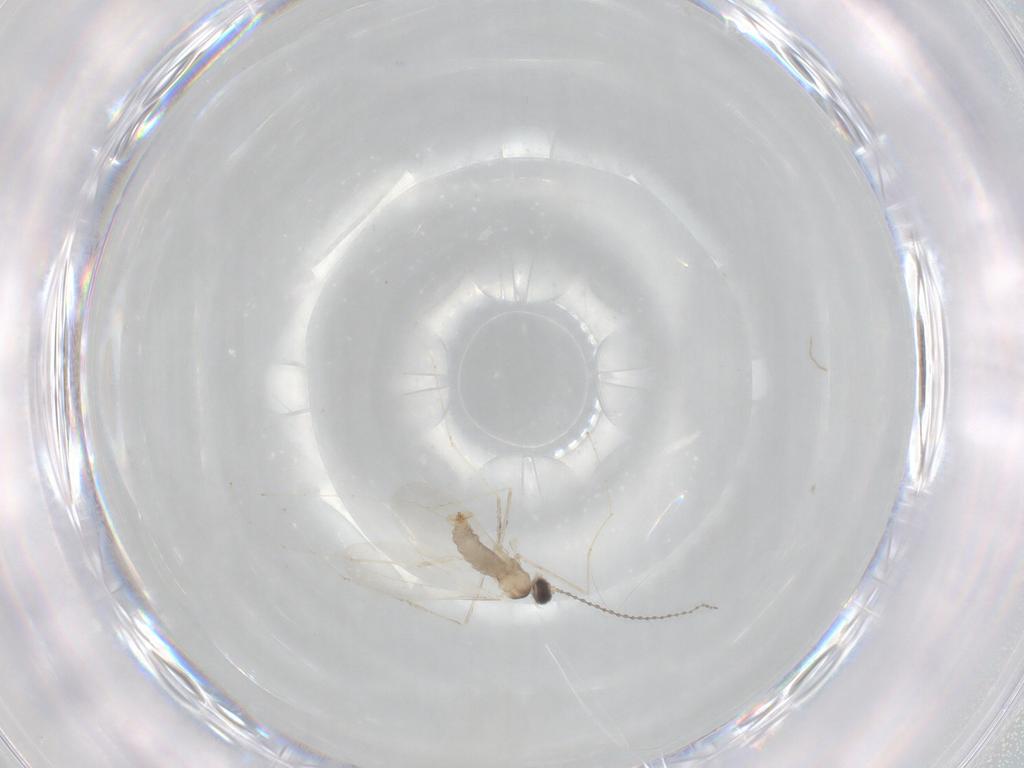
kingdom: Animalia
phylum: Arthropoda
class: Insecta
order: Diptera
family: Cecidomyiidae
